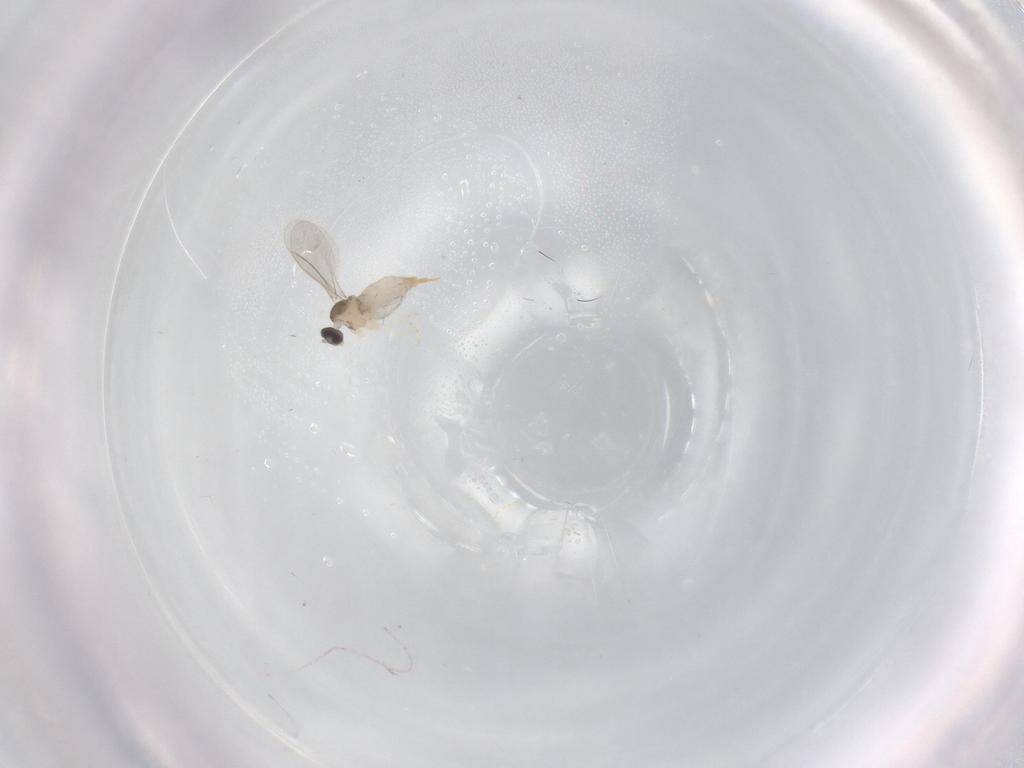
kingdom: Animalia
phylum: Arthropoda
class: Insecta
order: Diptera
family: Cecidomyiidae
